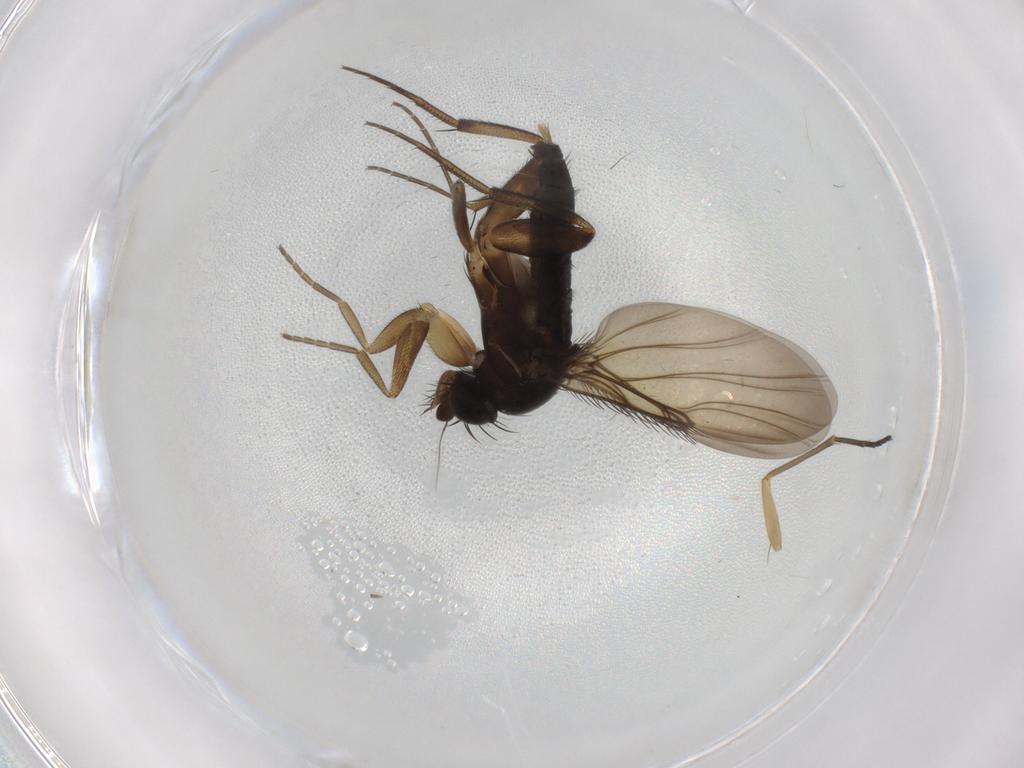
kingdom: Animalia
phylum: Arthropoda
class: Insecta
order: Diptera
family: Phoridae
